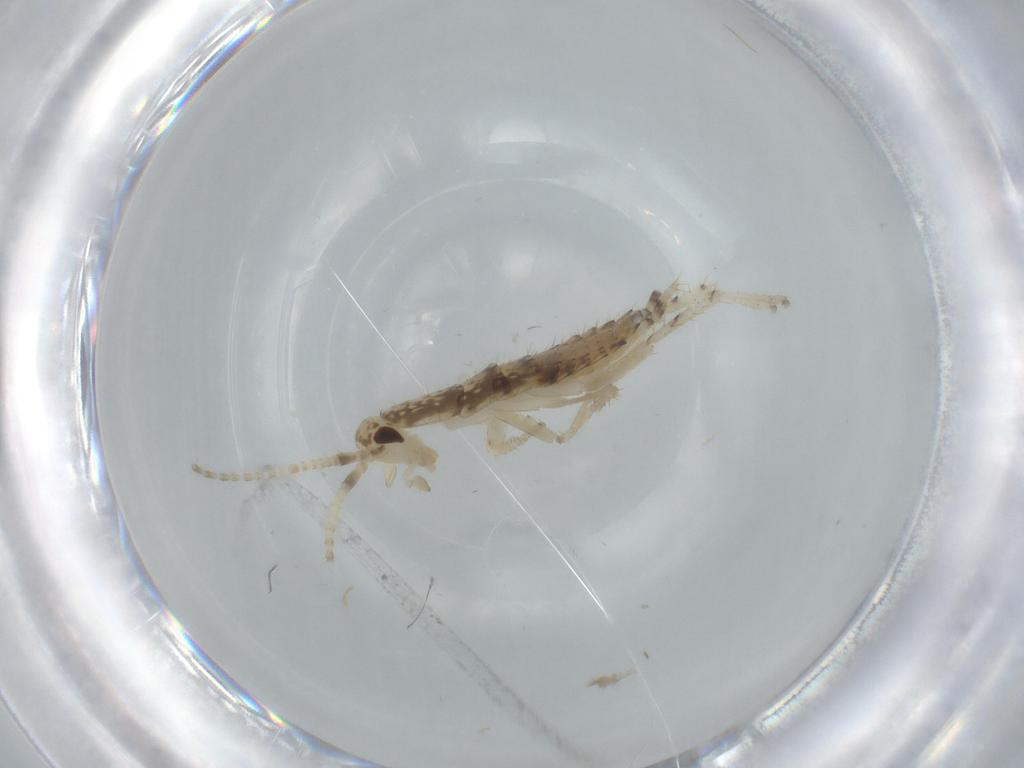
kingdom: Animalia
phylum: Arthropoda
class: Insecta
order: Blattodea
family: Ectobiidae
